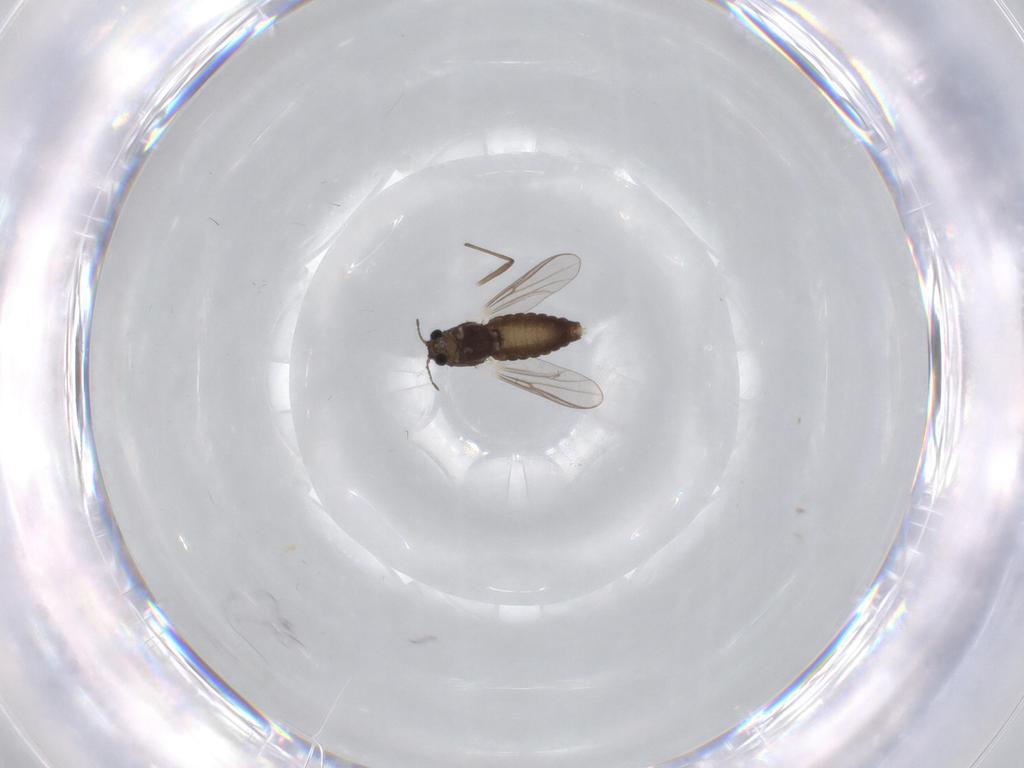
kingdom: Animalia
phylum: Arthropoda
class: Insecta
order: Diptera
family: Chironomidae
